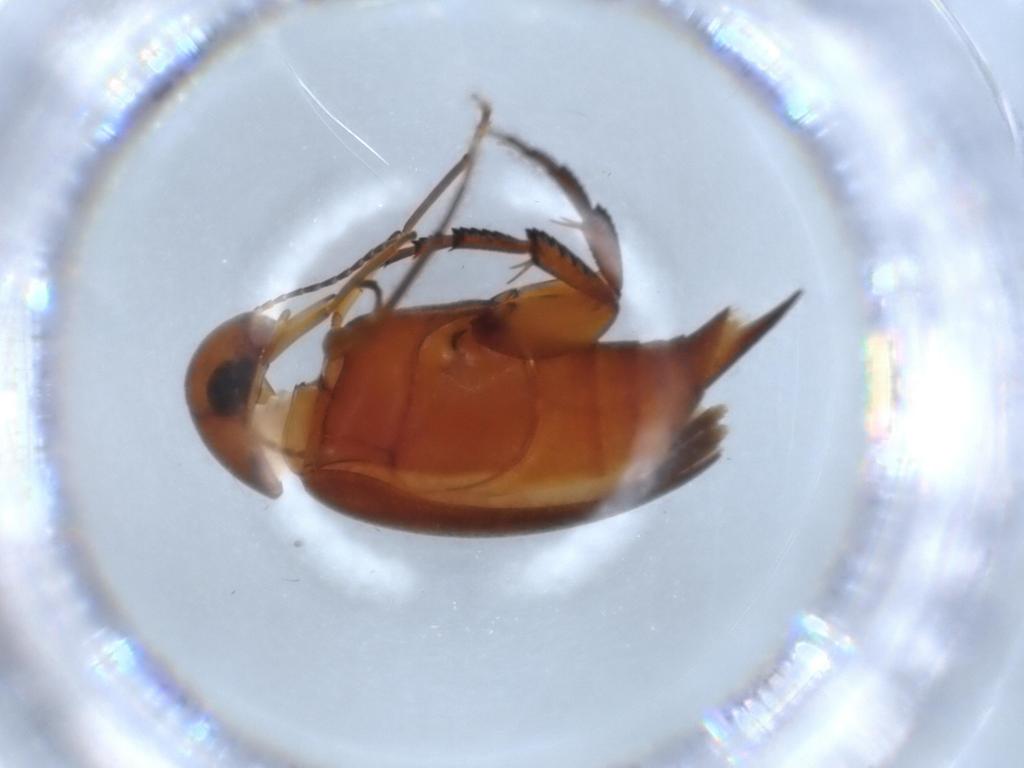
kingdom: Animalia
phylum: Arthropoda
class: Insecta
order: Coleoptera
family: Mordellidae
